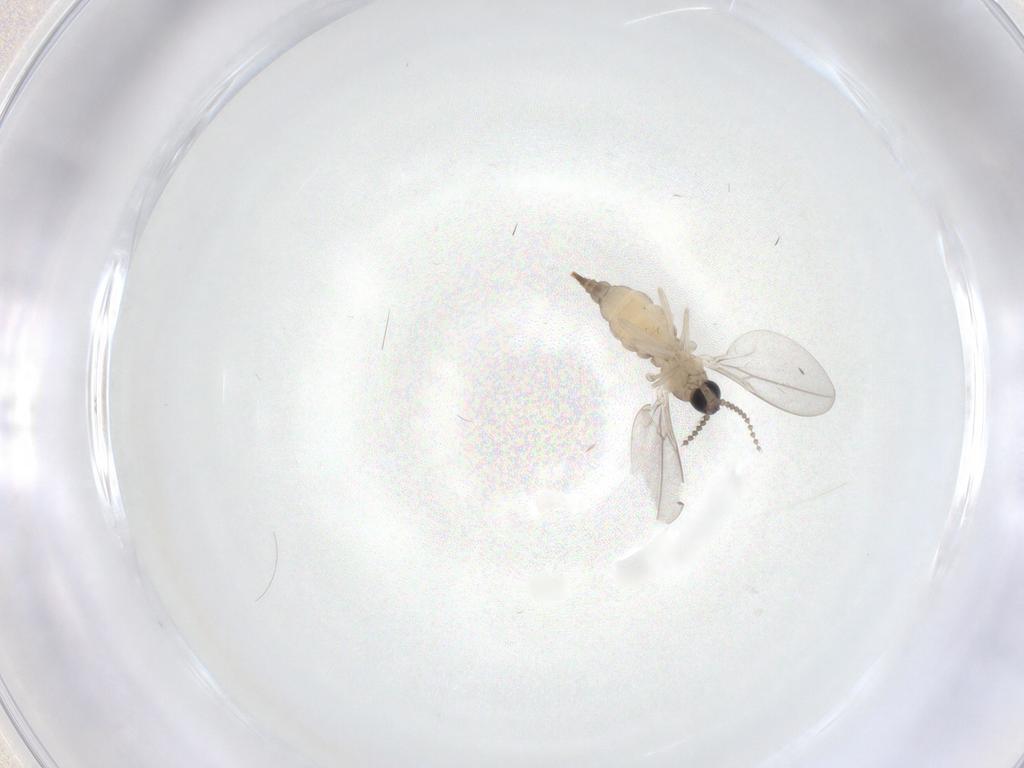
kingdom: Animalia
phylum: Arthropoda
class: Insecta
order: Diptera
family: Cecidomyiidae
